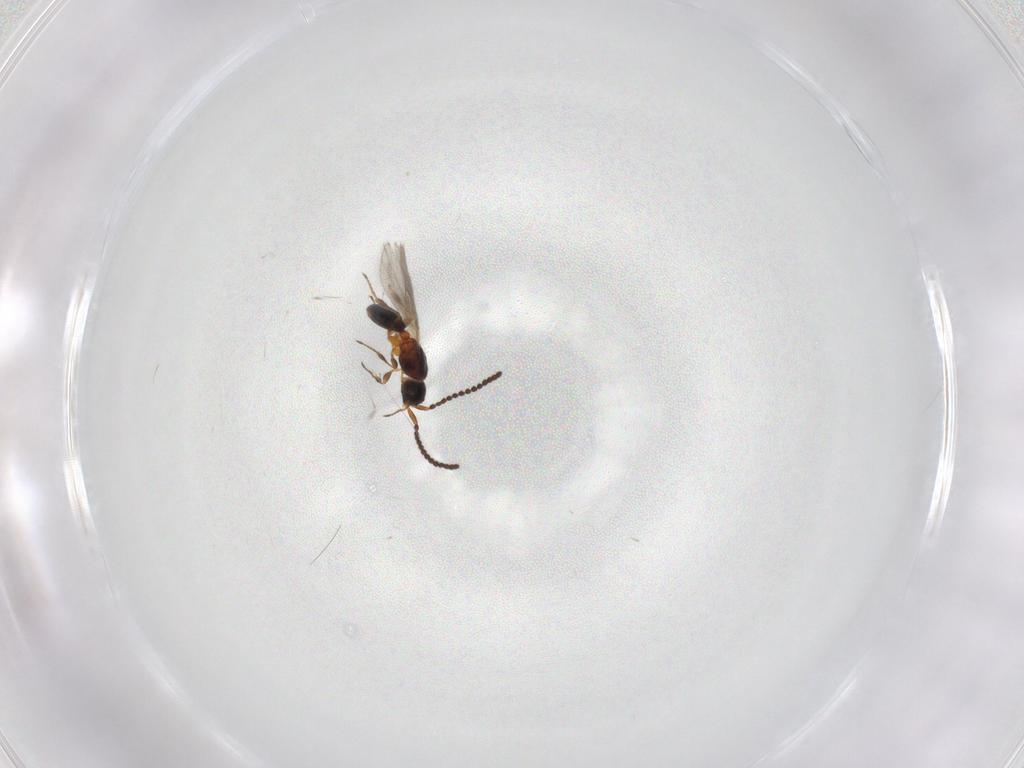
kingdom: Animalia
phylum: Arthropoda
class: Insecta
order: Hymenoptera
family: Diapriidae
